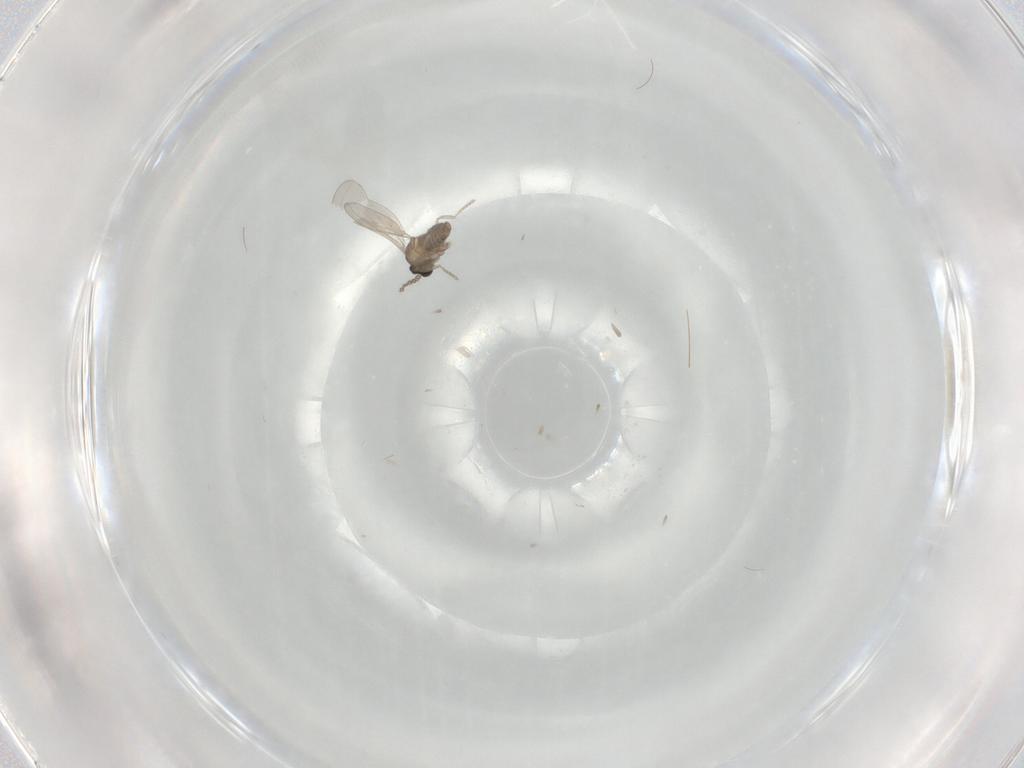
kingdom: Animalia
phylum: Arthropoda
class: Insecta
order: Diptera
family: Cecidomyiidae
